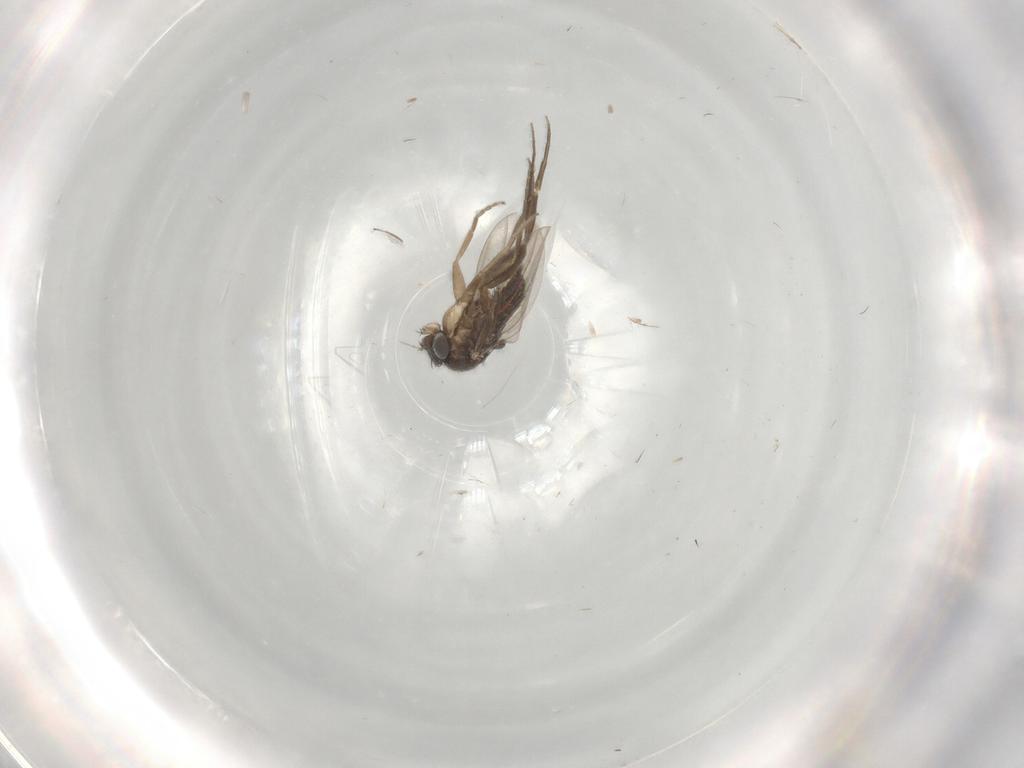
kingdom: Animalia
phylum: Arthropoda
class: Insecta
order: Diptera
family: Phoridae
